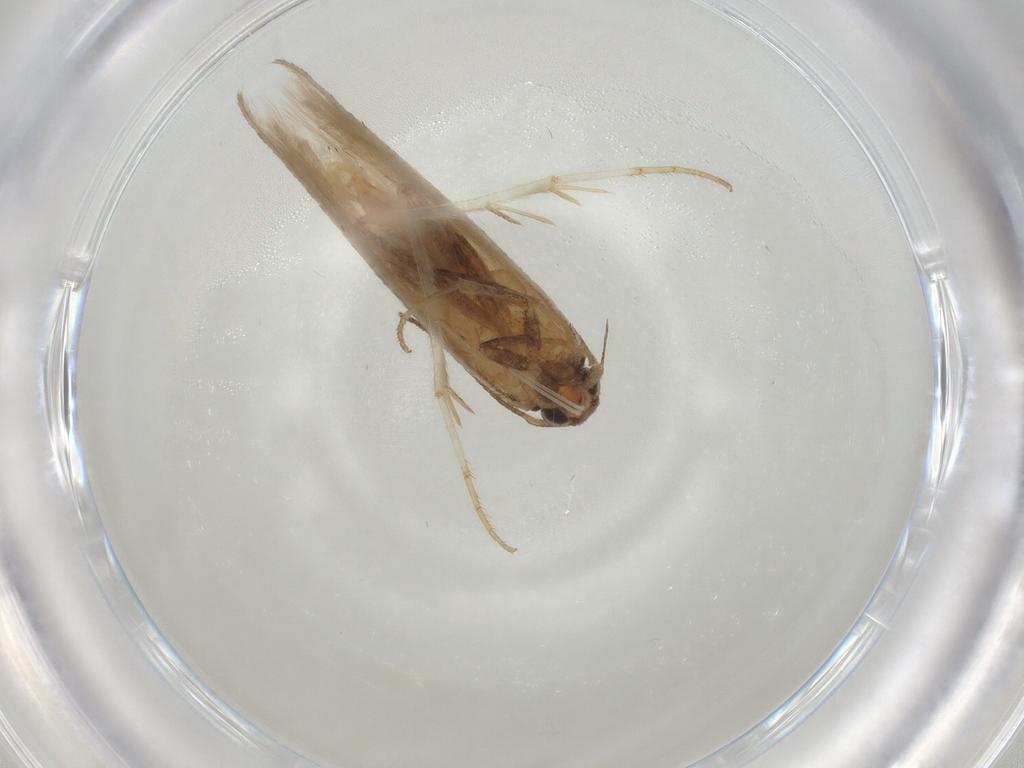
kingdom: Animalia
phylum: Arthropoda
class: Insecta
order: Lepidoptera
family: Gelechiidae
